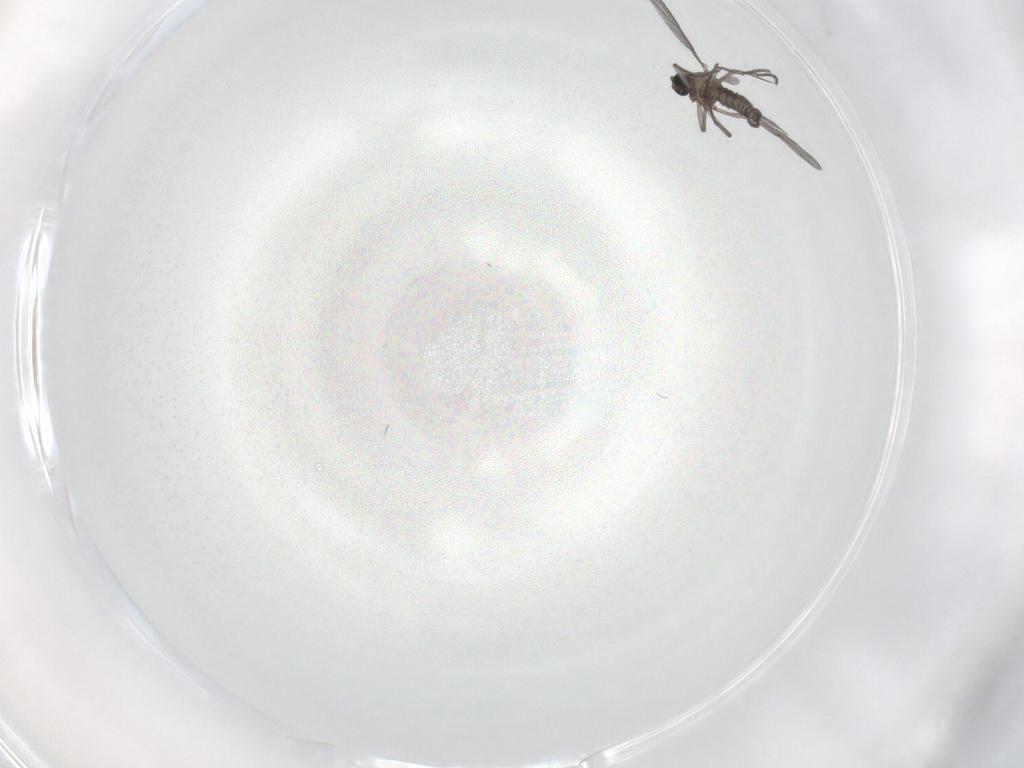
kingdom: Animalia
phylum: Arthropoda
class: Insecta
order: Diptera
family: Sciaridae
